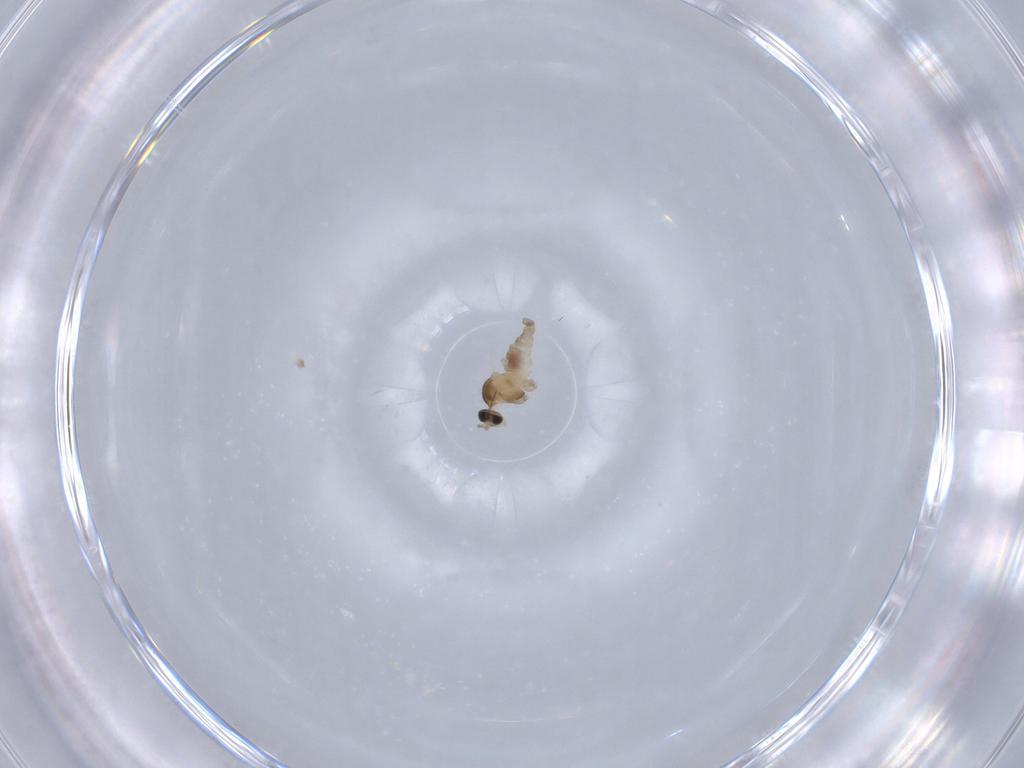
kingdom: Animalia
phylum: Arthropoda
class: Insecta
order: Diptera
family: Cecidomyiidae
